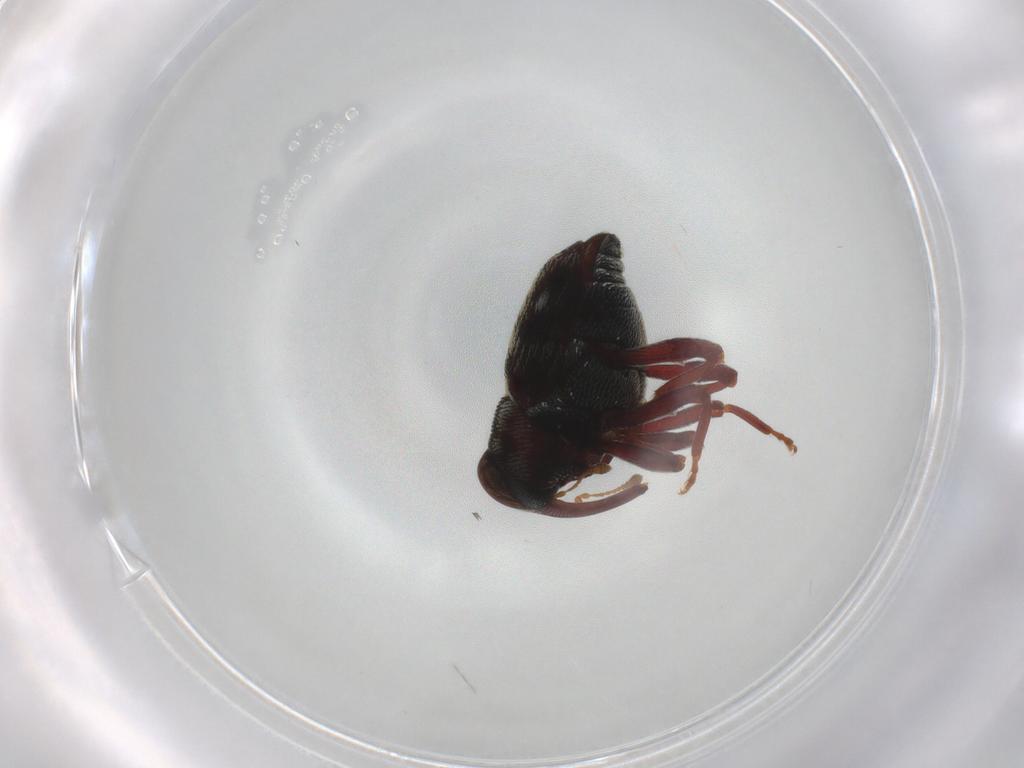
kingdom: Animalia
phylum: Arthropoda
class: Insecta
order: Coleoptera
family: Curculionidae
